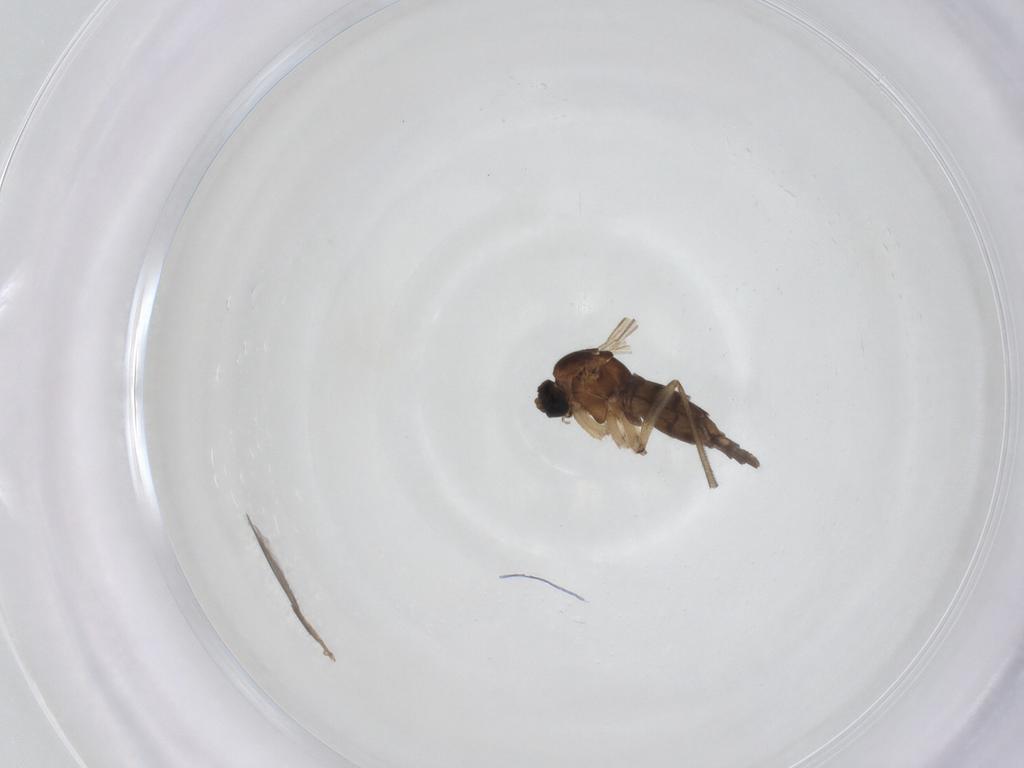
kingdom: Animalia
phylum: Arthropoda
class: Insecta
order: Diptera
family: Sciaridae
